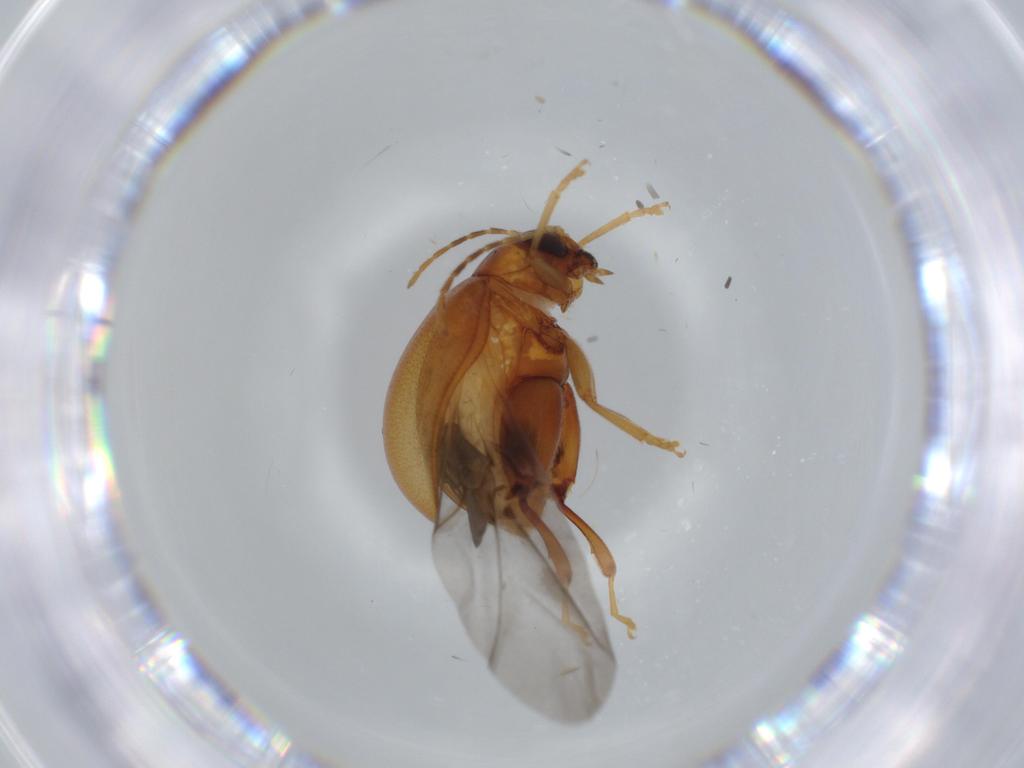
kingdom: Animalia
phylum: Arthropoda
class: Insecta
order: Coleoptera
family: Chrysomelidae
